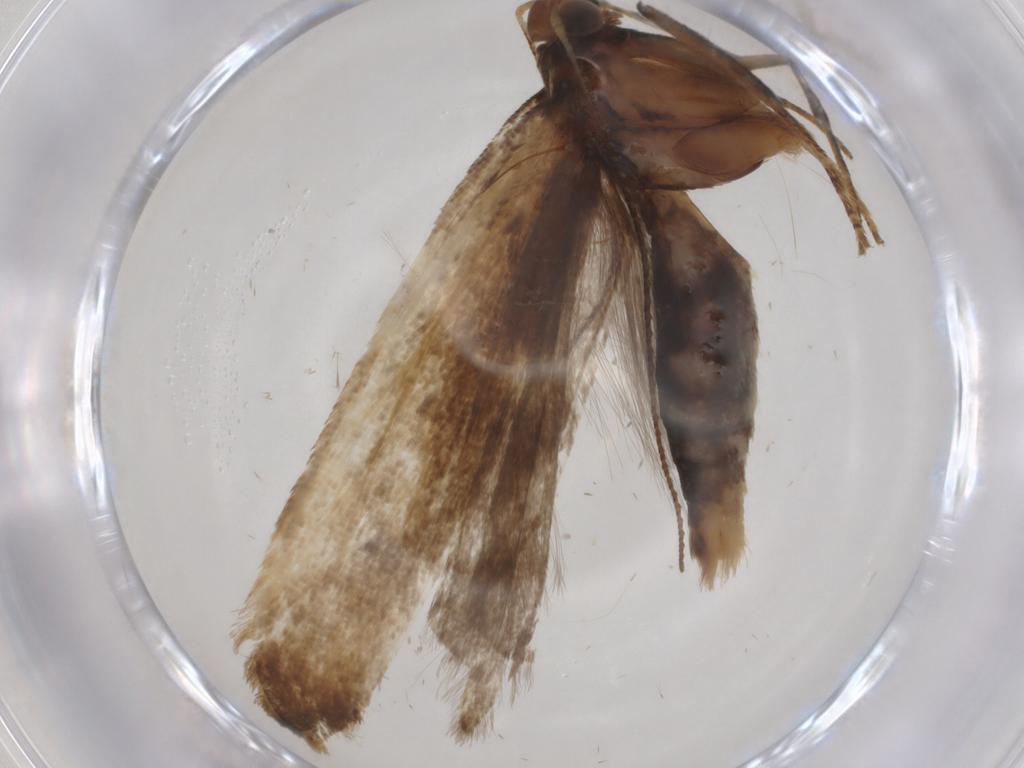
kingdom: Animalia
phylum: Arthropoda
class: Insecta
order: Lepidoptera
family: Gelechiidae
